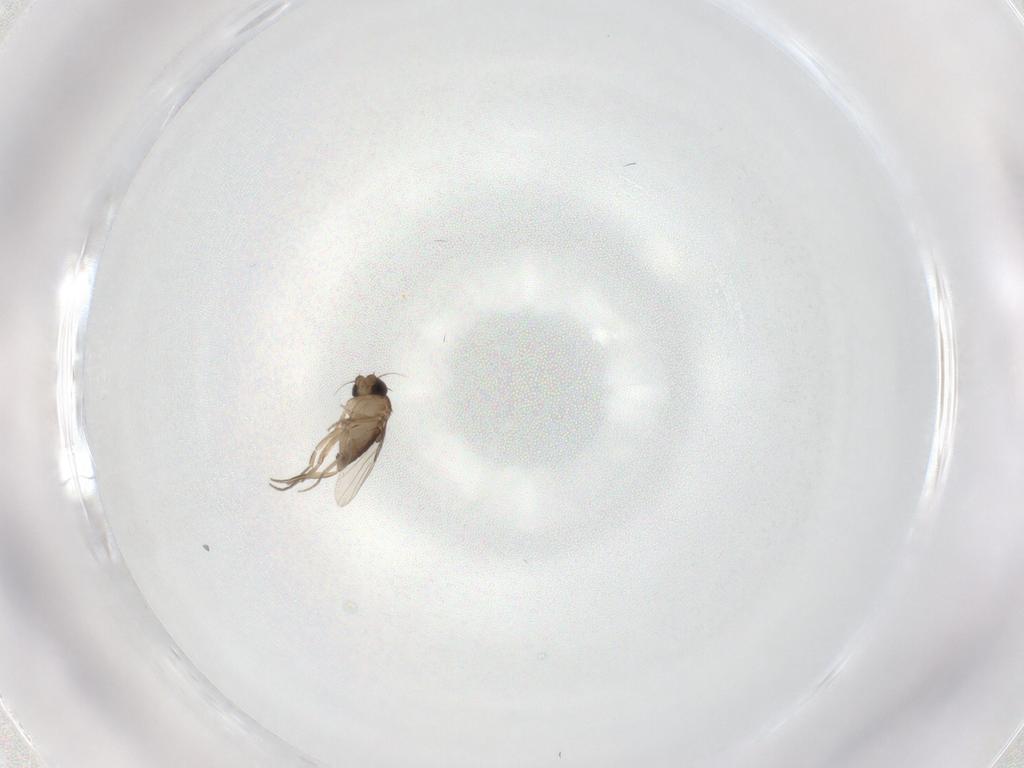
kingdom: Animalia
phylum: Arthropoda
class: Insecta
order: Diptera
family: Phoridae
